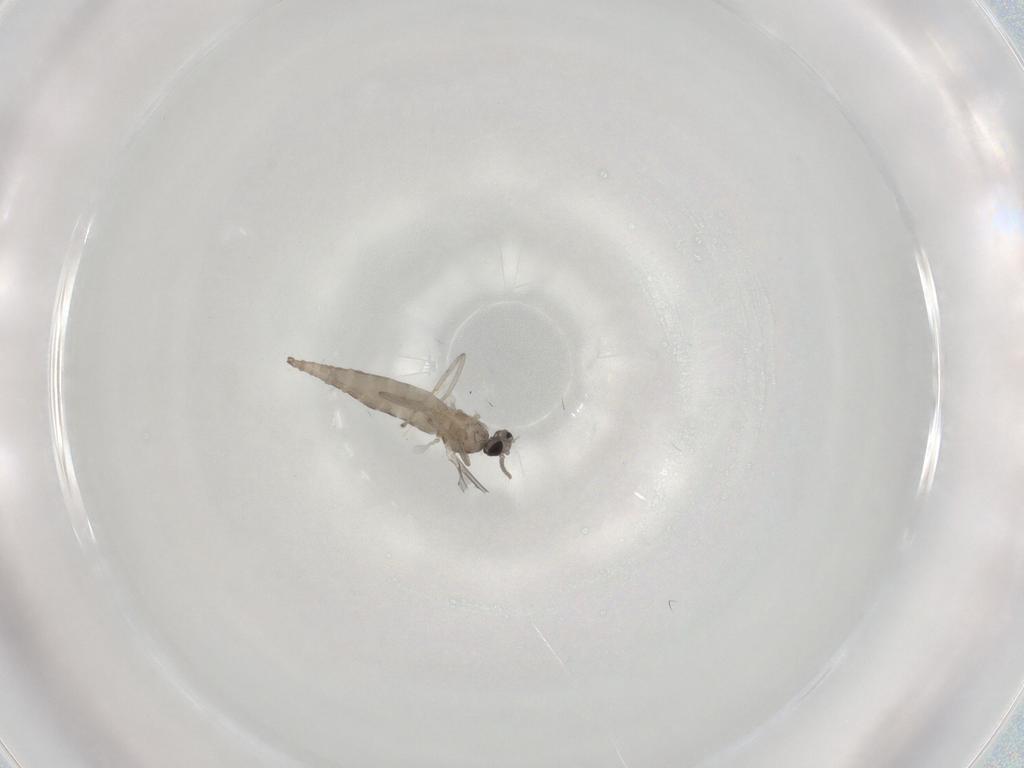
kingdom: Animalia
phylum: Arthropoda
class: Insecta
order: Diptera
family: Cecidomyiidae
